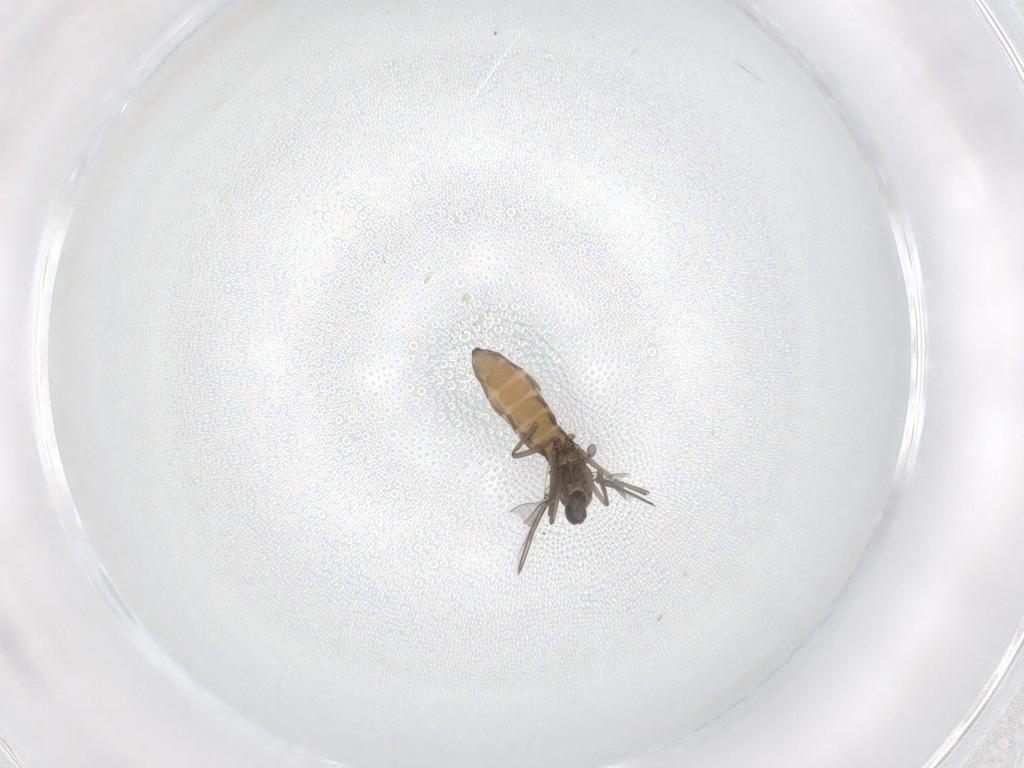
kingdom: Animalia
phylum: Arthropoda
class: Insecta
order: Diptera
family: Cecidomyiidae
